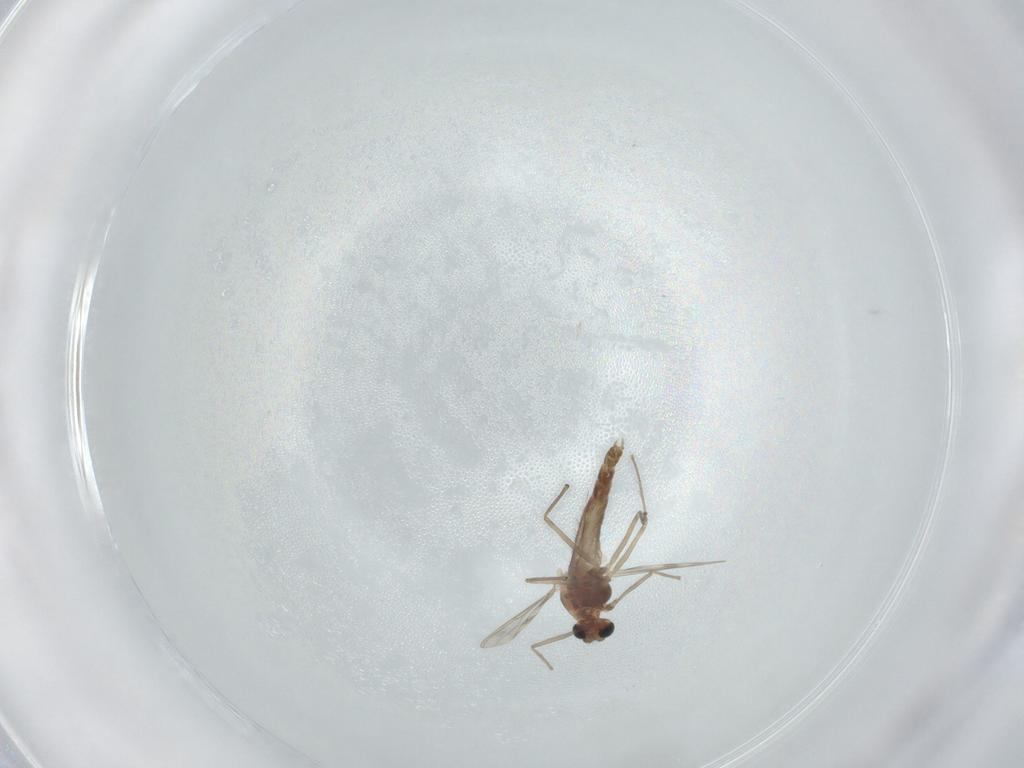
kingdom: Animalia
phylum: Arthropoda
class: Insecta
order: Diptera
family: Chironomidae
